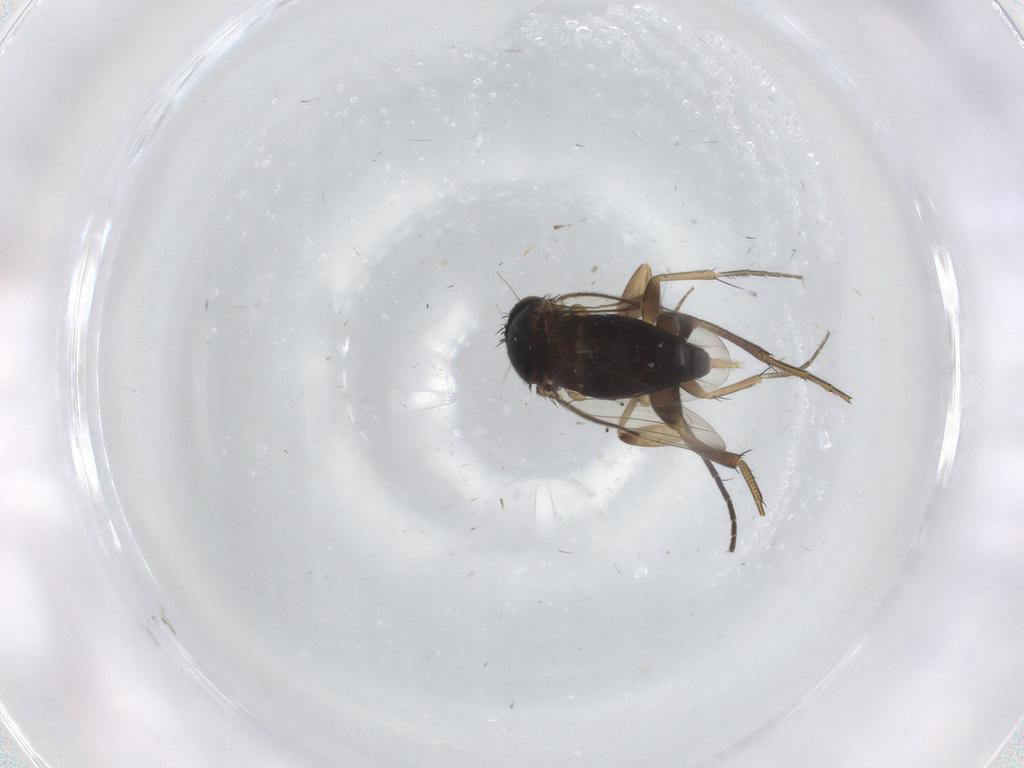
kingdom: Animalia
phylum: Arthropoda
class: Insecta
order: Diptera
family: Phoridae
